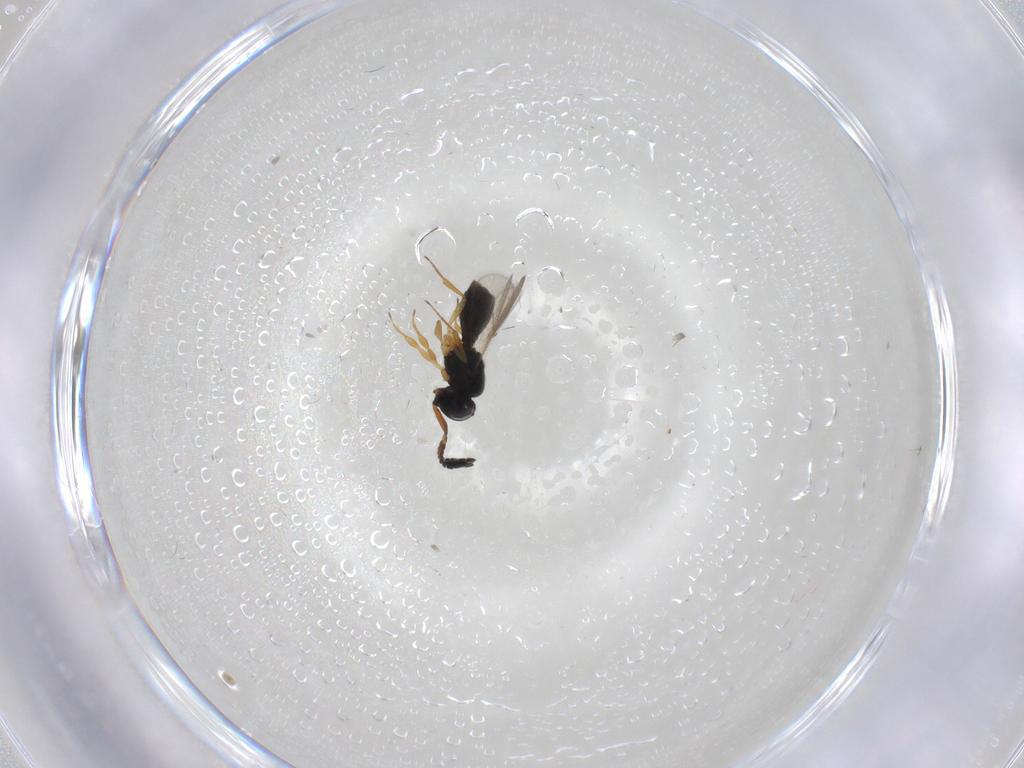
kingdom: Animalia
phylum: Arthropoda
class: Insecta
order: Hymenoptera
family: Scelionidae
